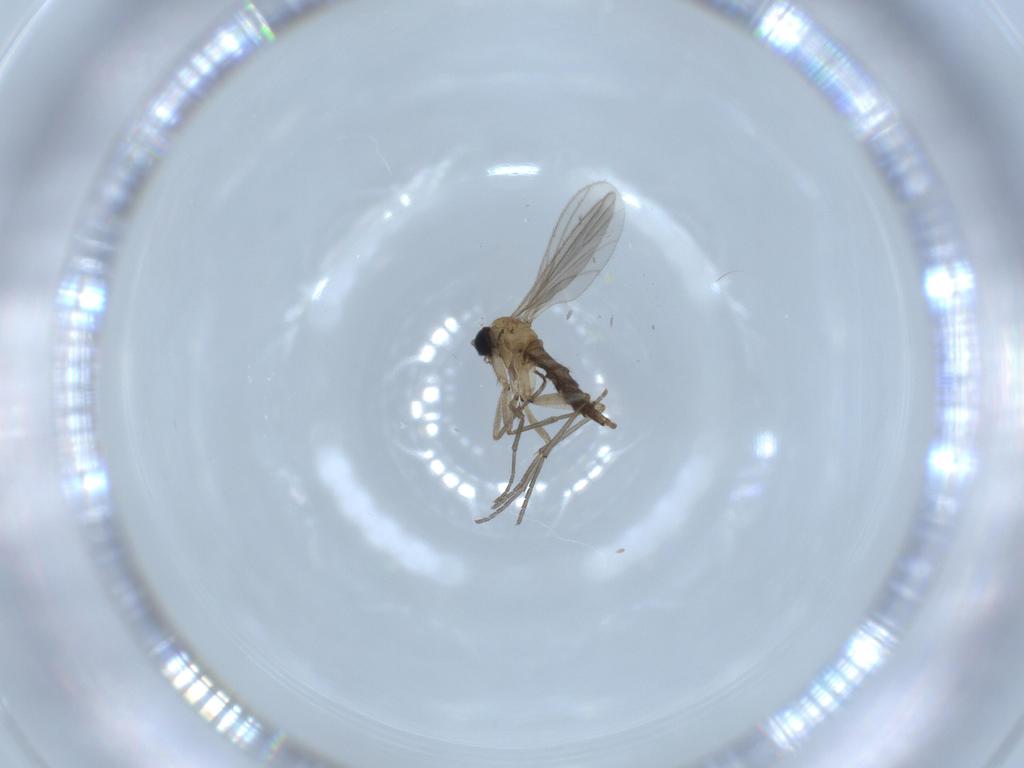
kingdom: Animalia
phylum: Arthropoda
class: Insecta
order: Diptera
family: Sciaridae
